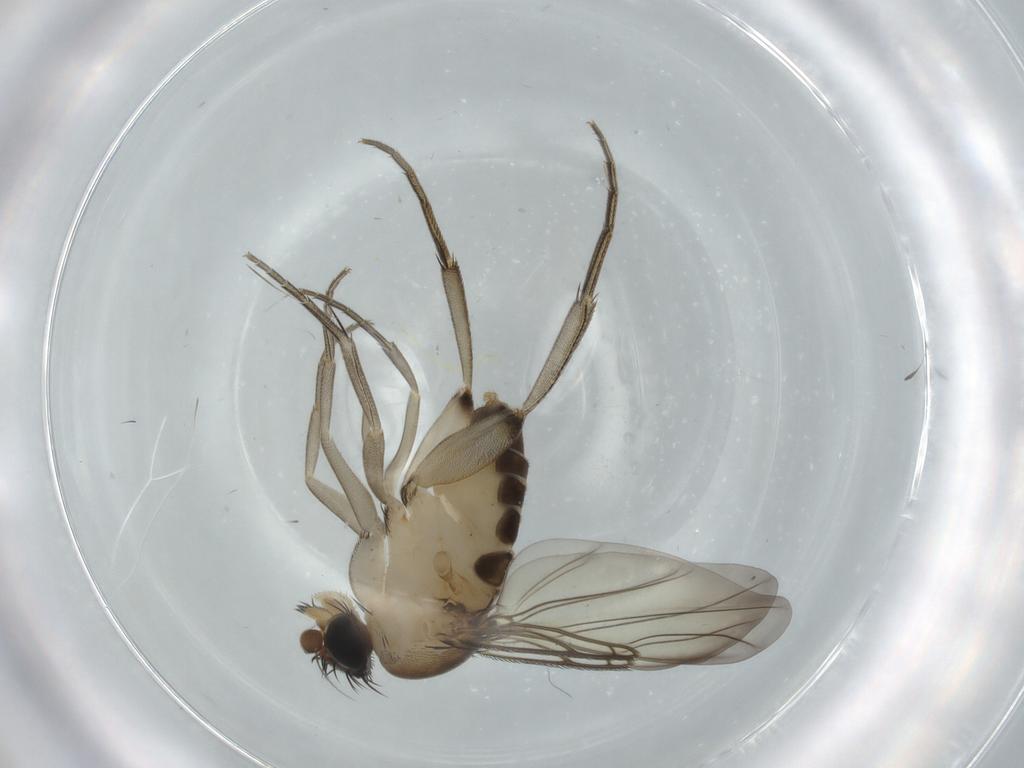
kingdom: Animalia
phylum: Arthropoda
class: Insecta
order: Diptera
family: Phoridae
